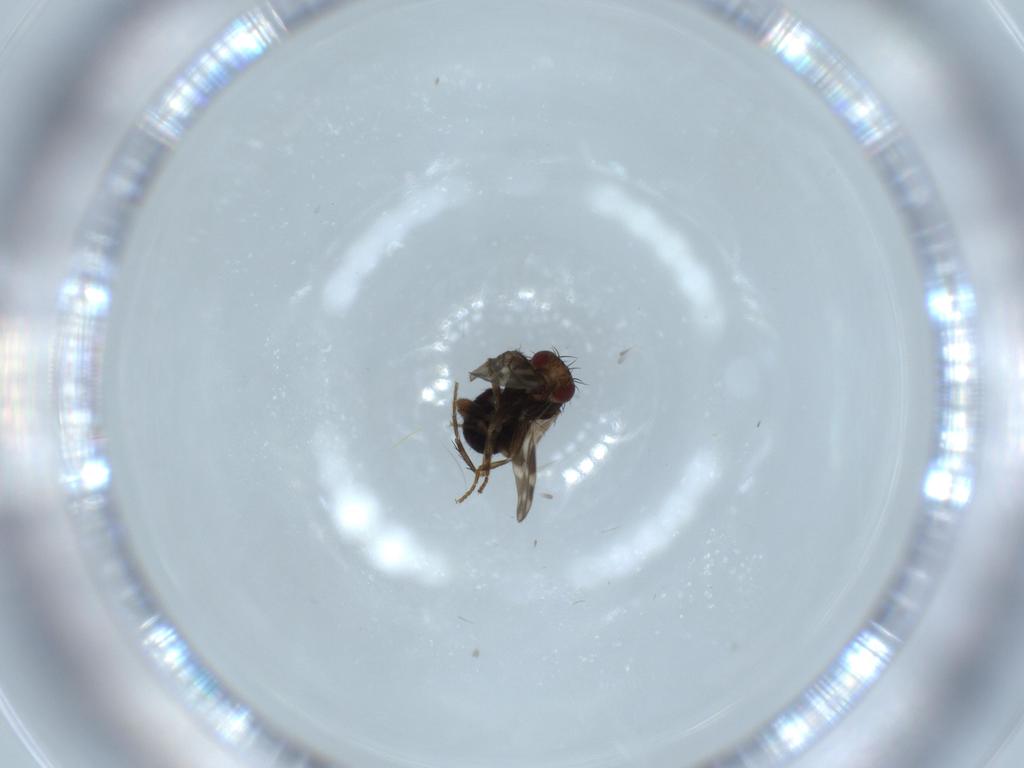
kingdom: Animalia
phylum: Arthropoda
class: Insecta
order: Diptera
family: Sphaeroceridae
